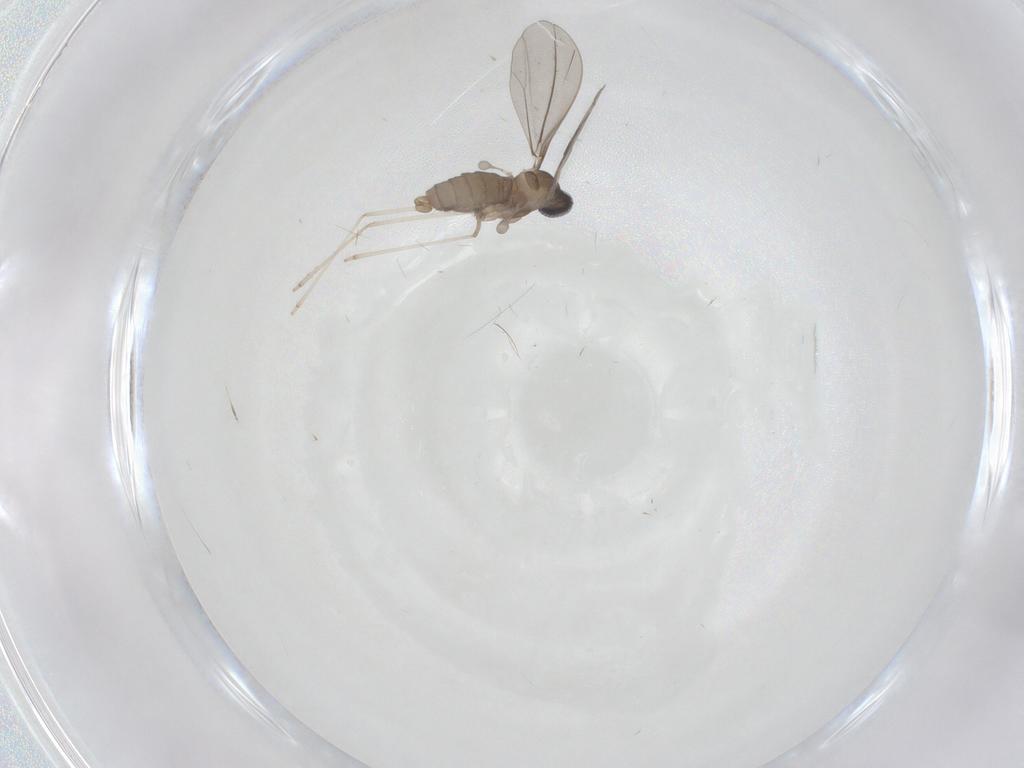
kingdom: Animalia
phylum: Arthropoda
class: Insecta
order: Diptera
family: Cecidomyiidae
